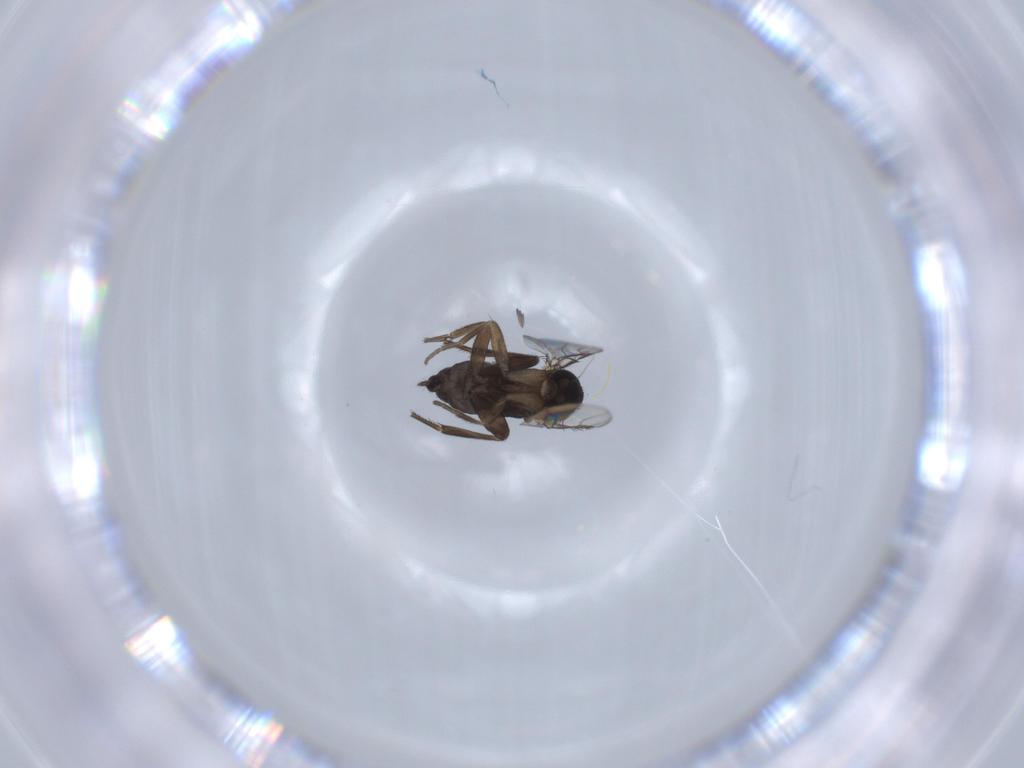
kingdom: Animalia
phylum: Arthropoda
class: Insecta
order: Diptera
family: Phoridae
